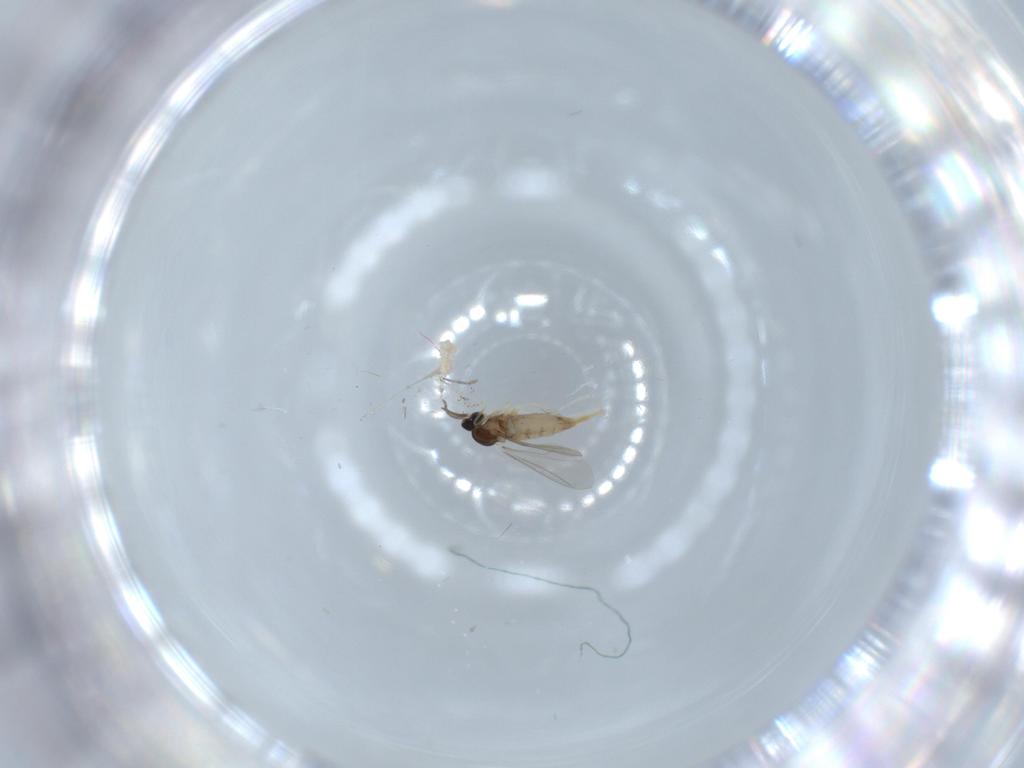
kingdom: Animalia
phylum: Arthropoda
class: Insecta
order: Diptera
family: Chironomidae
